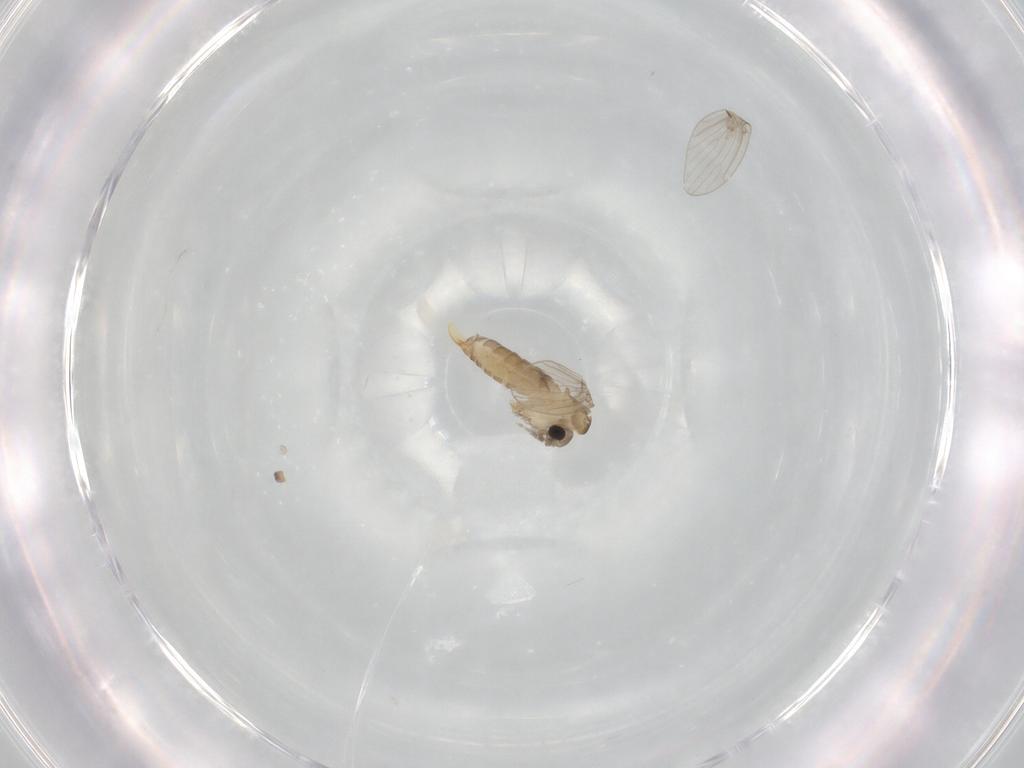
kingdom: Animalia
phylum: Arthropoda
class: Insecta
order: Diptera
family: Psychodidae
